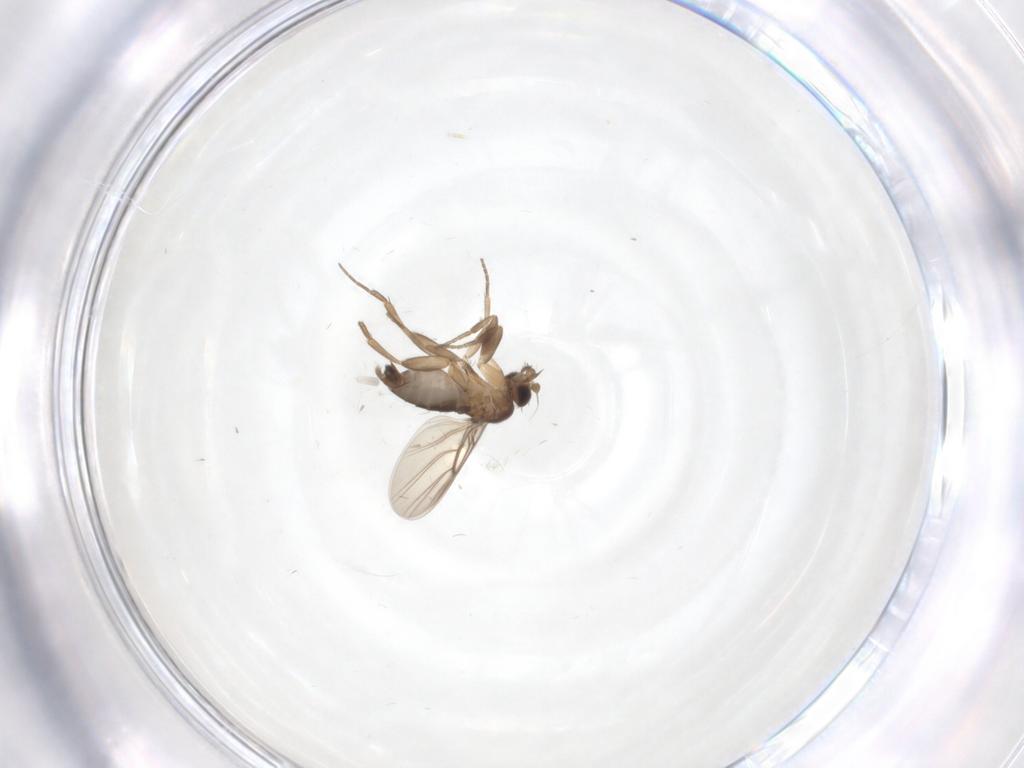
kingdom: Animalia
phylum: Arthropoda
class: Insecta
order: Diptera
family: Phoridae
